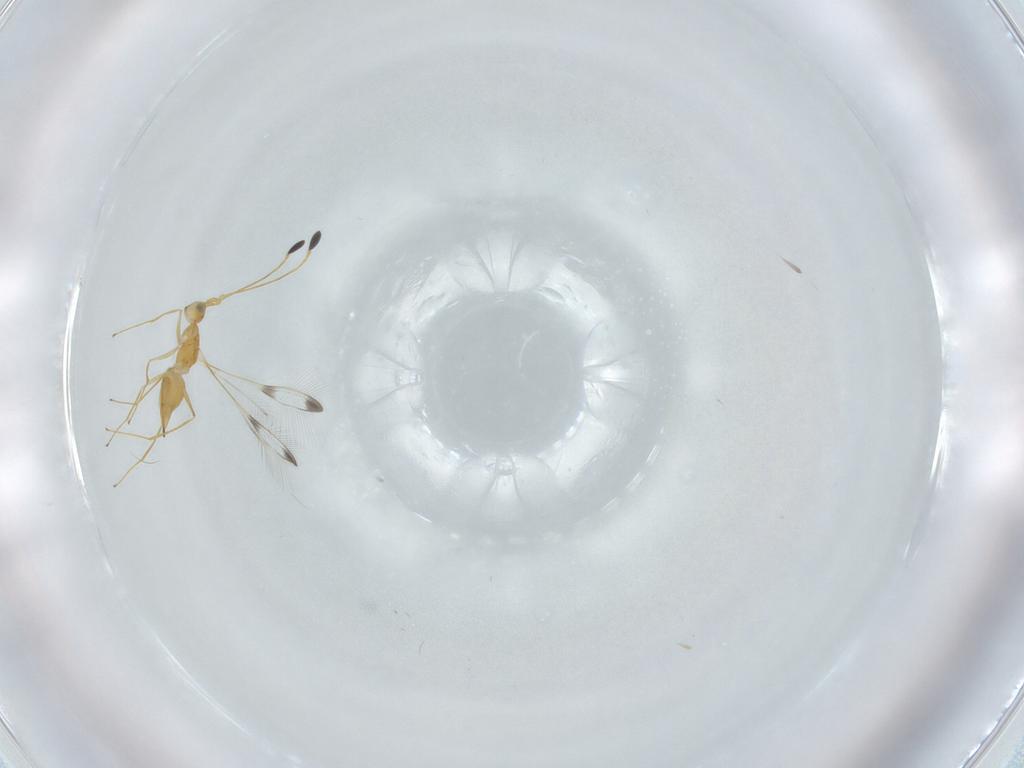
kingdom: Animalia
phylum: Arthropoda
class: Insecta
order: Hymenoptera
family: Mymaridae
